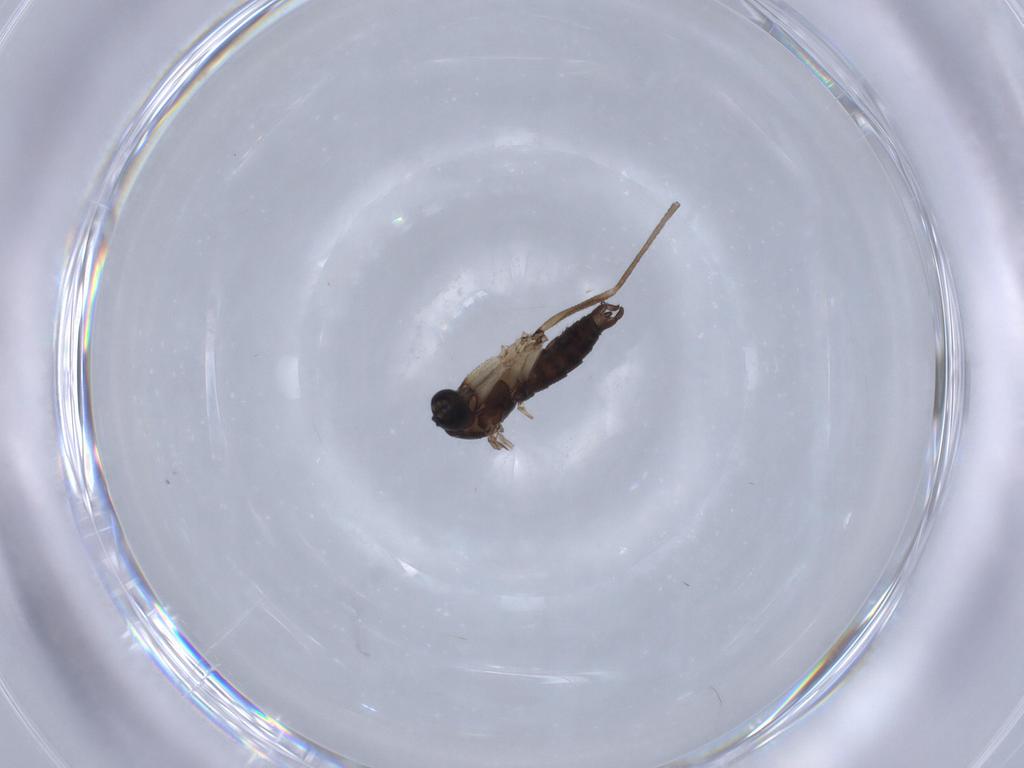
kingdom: Animalia
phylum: Arthropoda
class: Insecta
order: Diptera
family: Sciaridae
